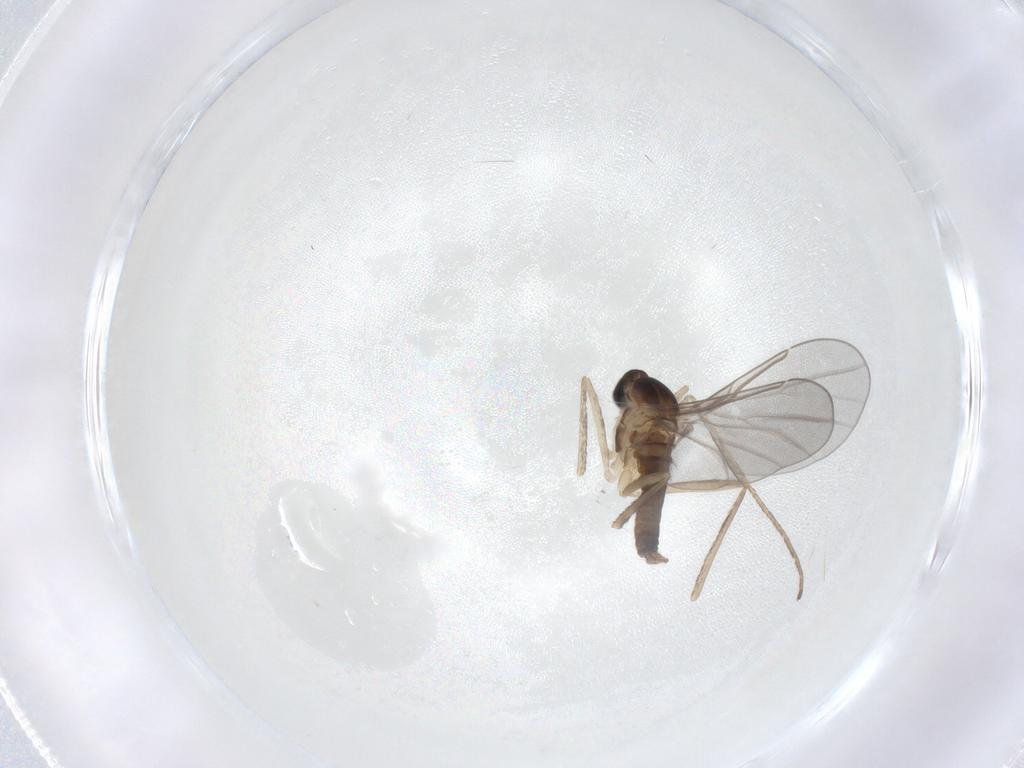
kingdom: Animalia
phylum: Arthropoda
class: Insecta
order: Diptera
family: Cecidomyiidae
